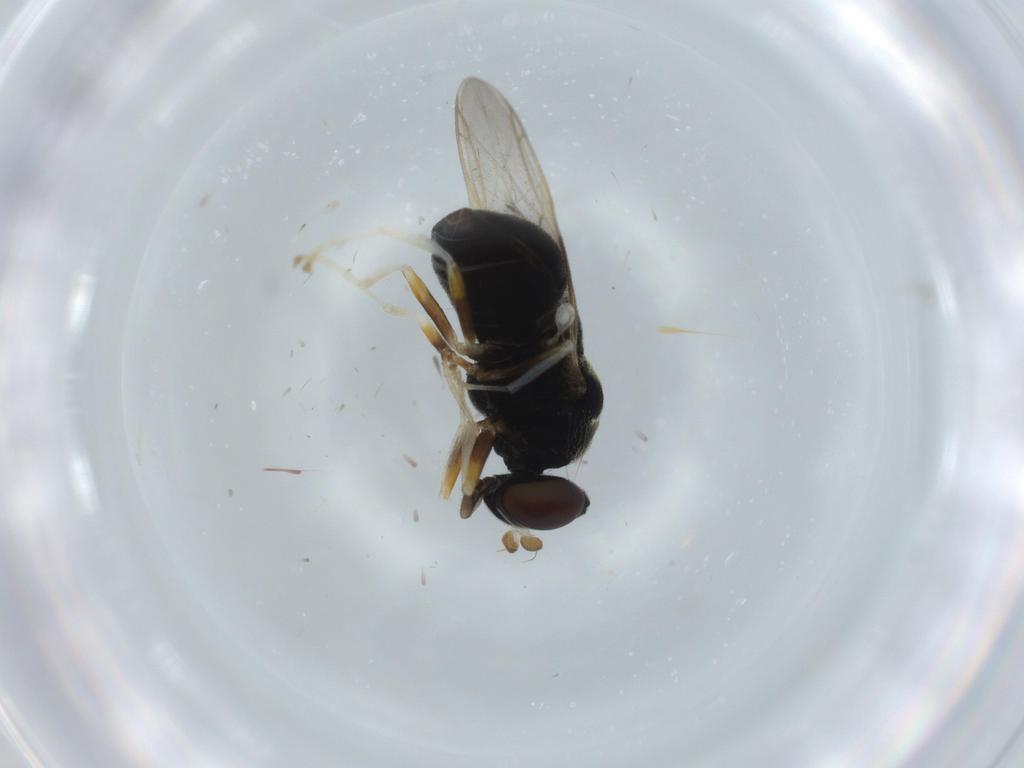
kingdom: Animalia
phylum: Arthropoda
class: Insecta
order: Diptera
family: Stratiomyidae
